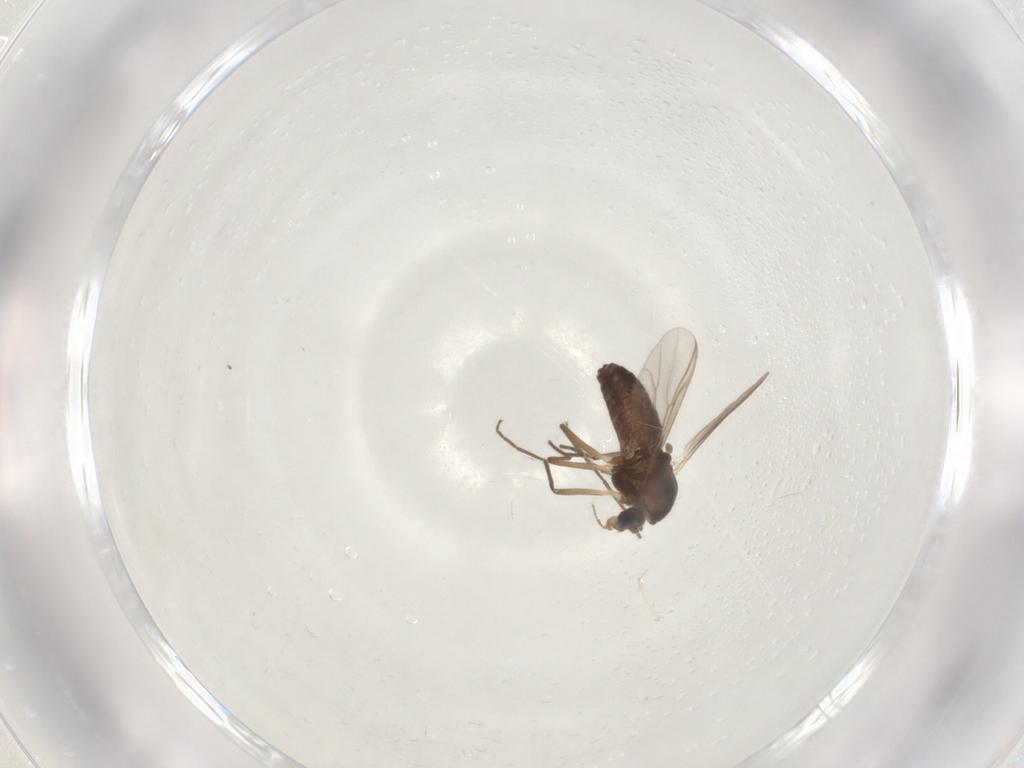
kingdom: Animalia
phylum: Arthropoda
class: Insecta
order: Diptera
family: Chironomidae
